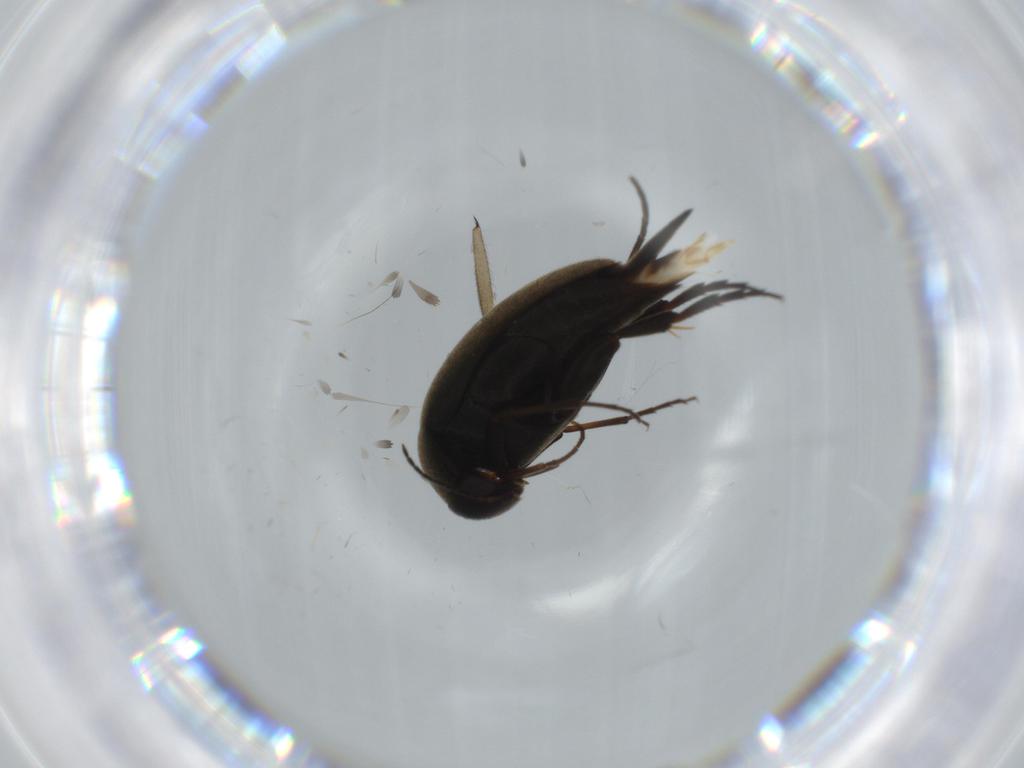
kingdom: Animalia
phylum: Arthropoda
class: Insecta
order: Coleoptera
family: Mordellidae
